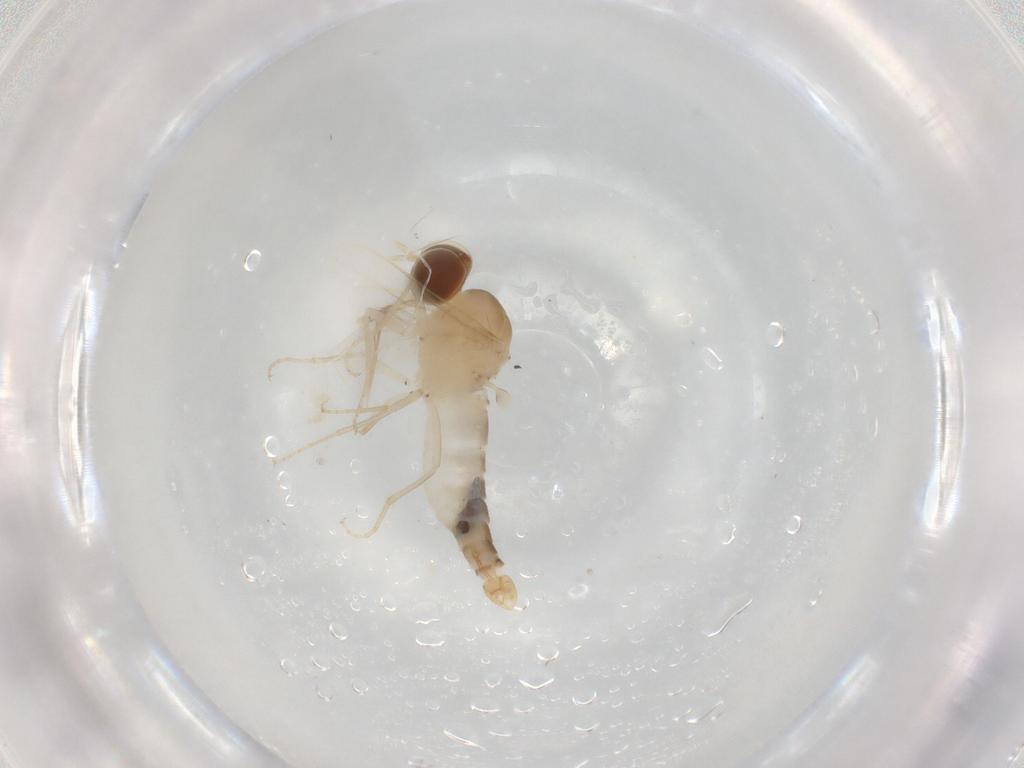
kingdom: Animalia
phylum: Arthropoda
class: Insecta
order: Diptera
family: Scenopinidae
